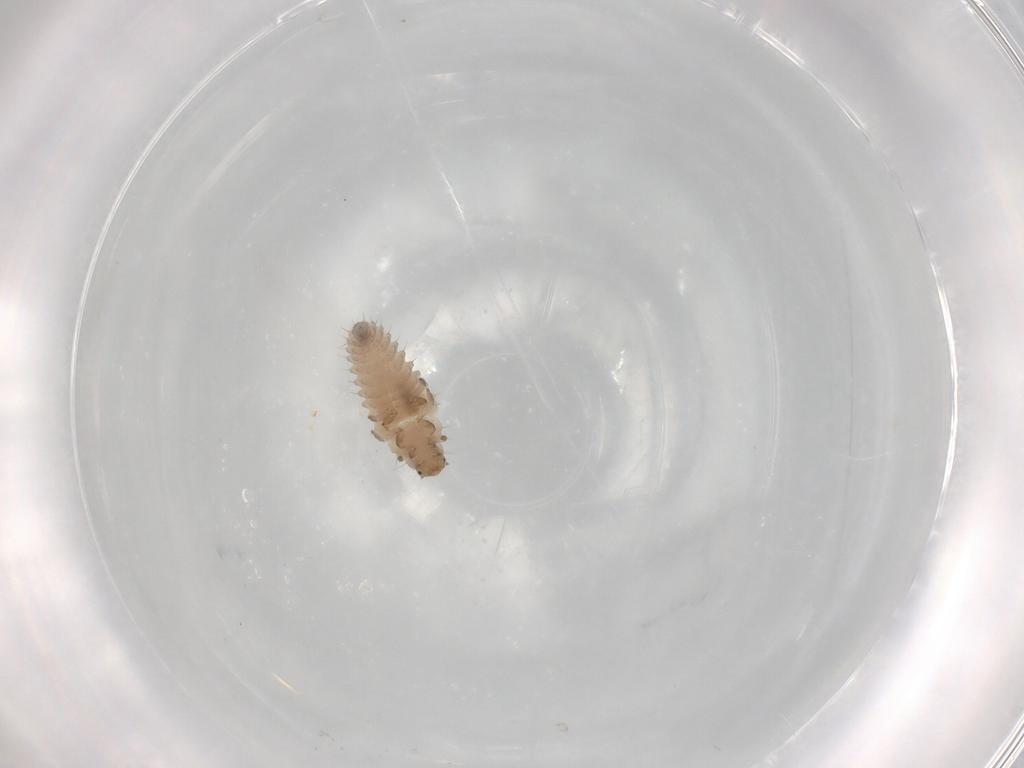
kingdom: Animalia
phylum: Arthropoda
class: Insecta
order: Coleoptera
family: Coccinellidae
